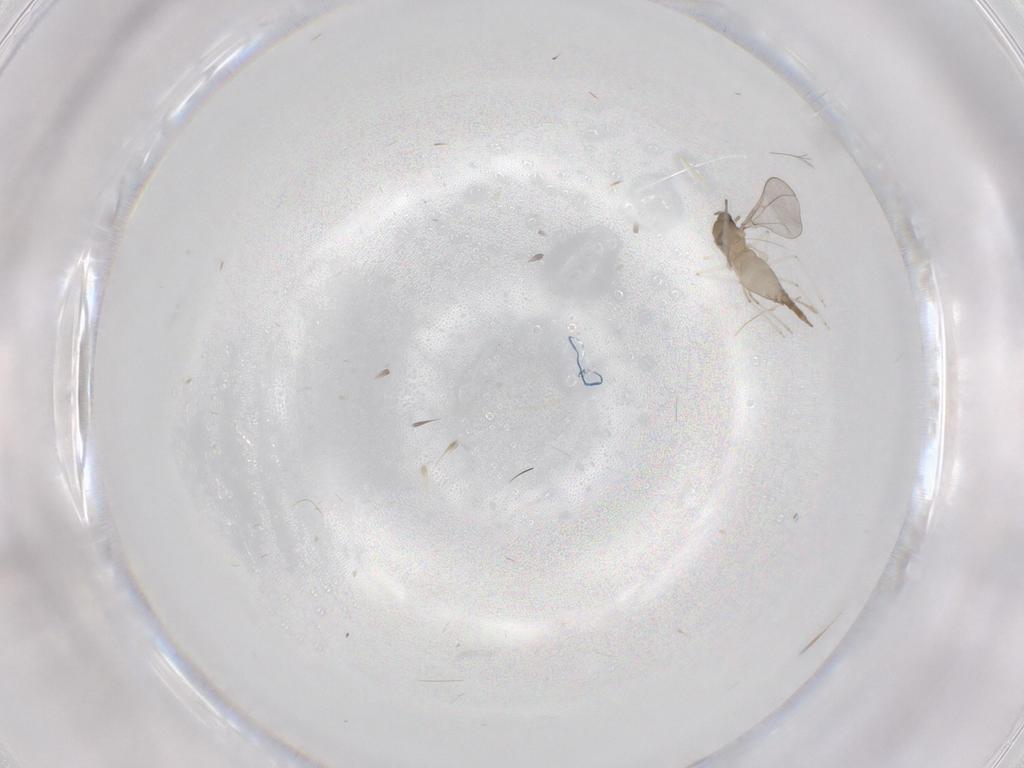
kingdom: Animalia
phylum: Arthropoda
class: Insecta
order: Diptera
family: Cecidomyiidae
